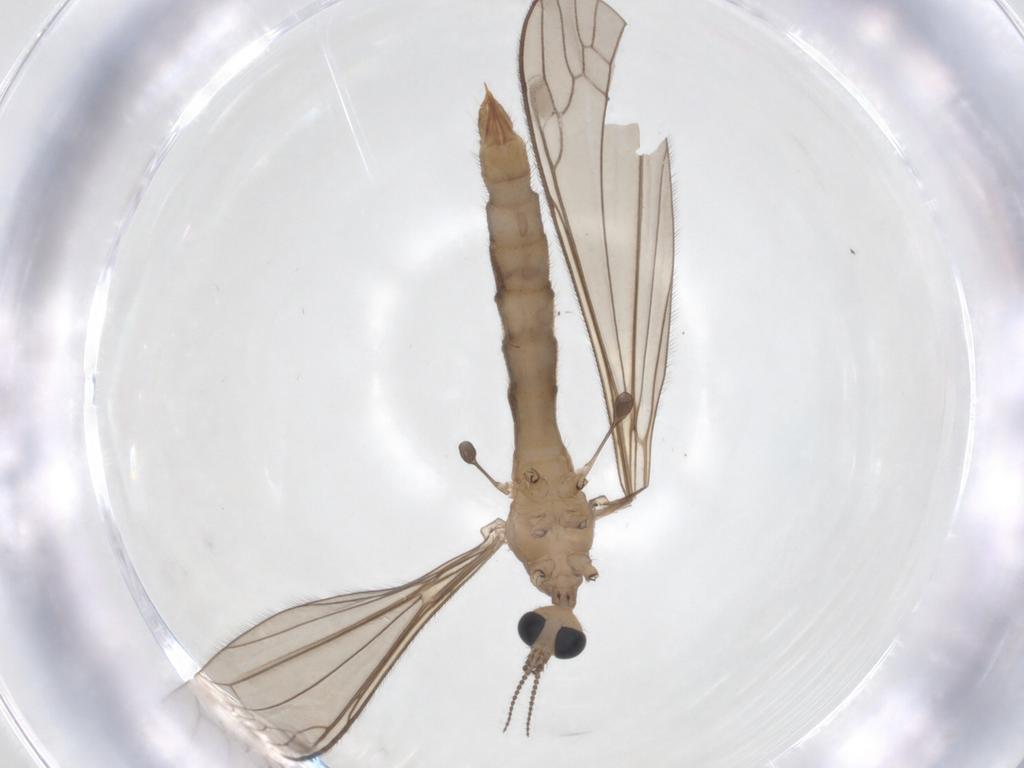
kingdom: Animalia
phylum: Arthropoda
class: Insecta
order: Diptera
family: Limoniidae
